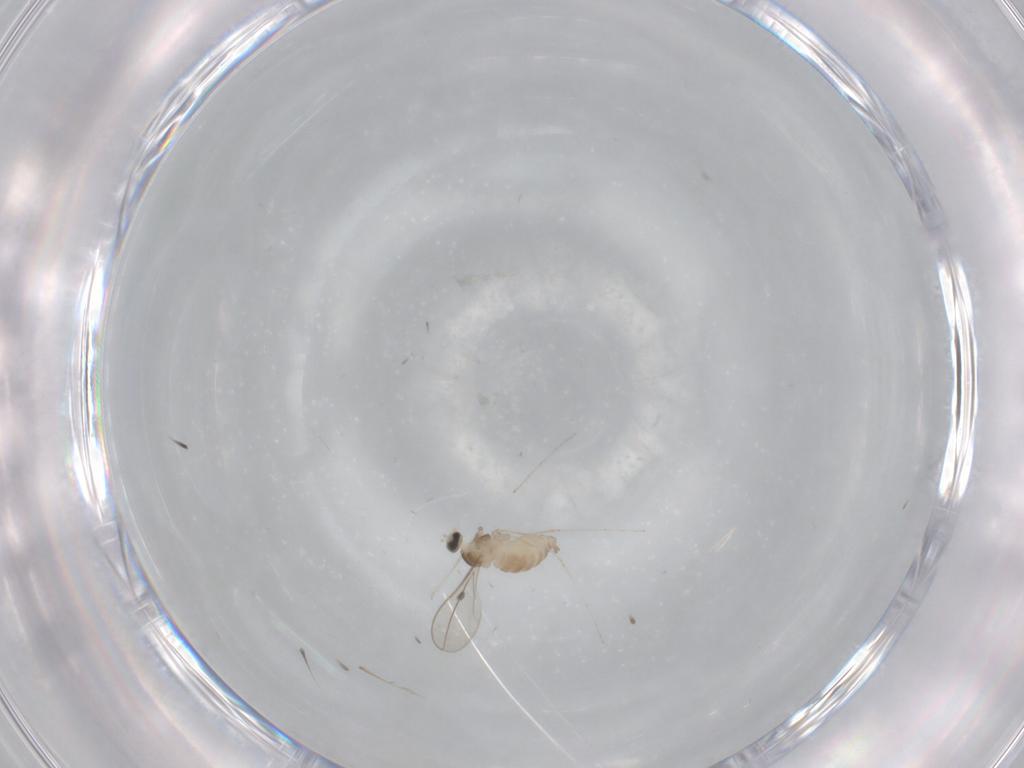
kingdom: Animalia
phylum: Arthropoda
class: Insecta
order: Diptera
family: Cecidomyiidae
